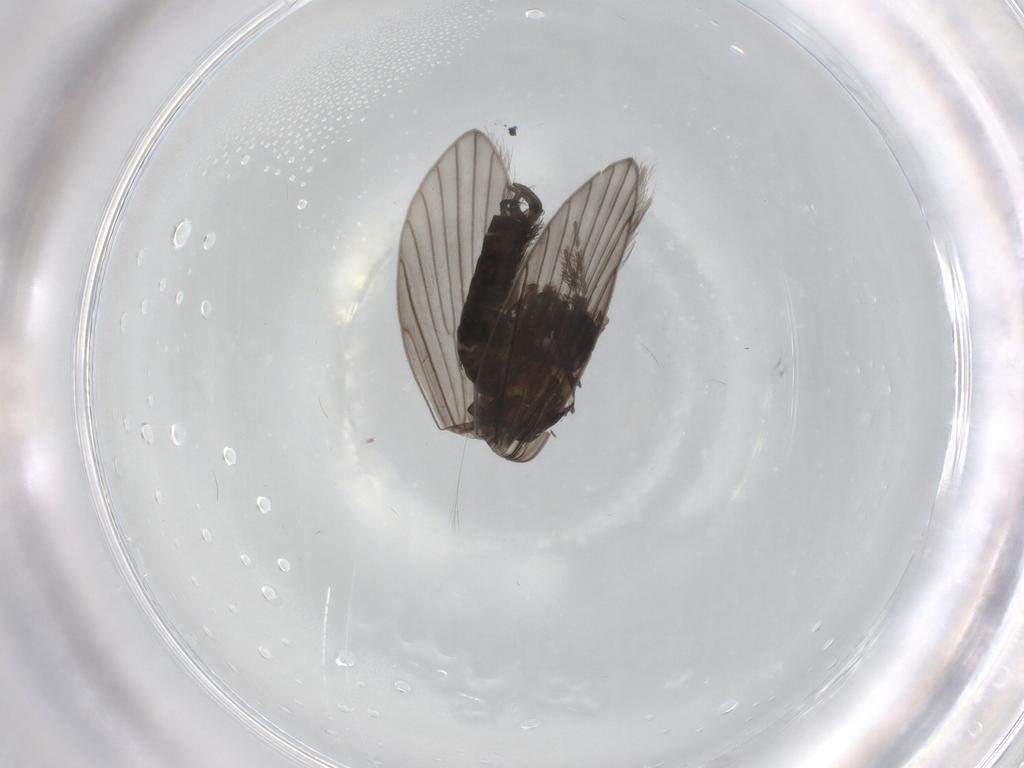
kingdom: Animalia
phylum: Arthropoda
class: Insecta
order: Diptera
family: Psychodidae
